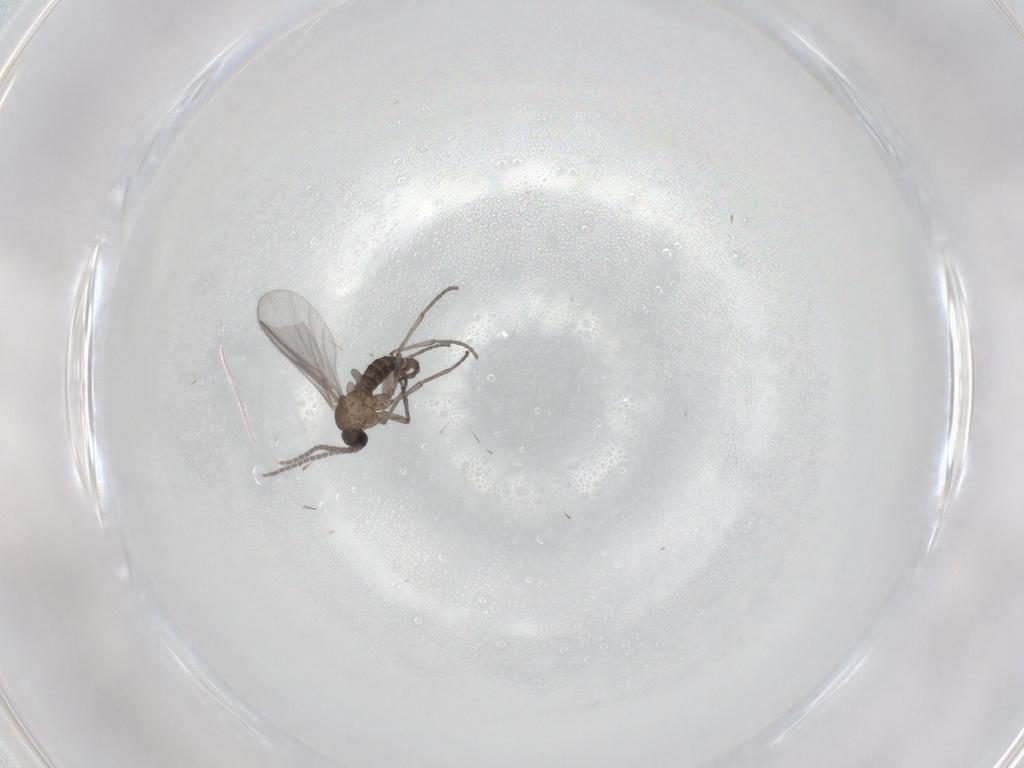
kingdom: Animalia
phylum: Arthropoda
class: Insecta
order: Diptera
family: Sciaridae
